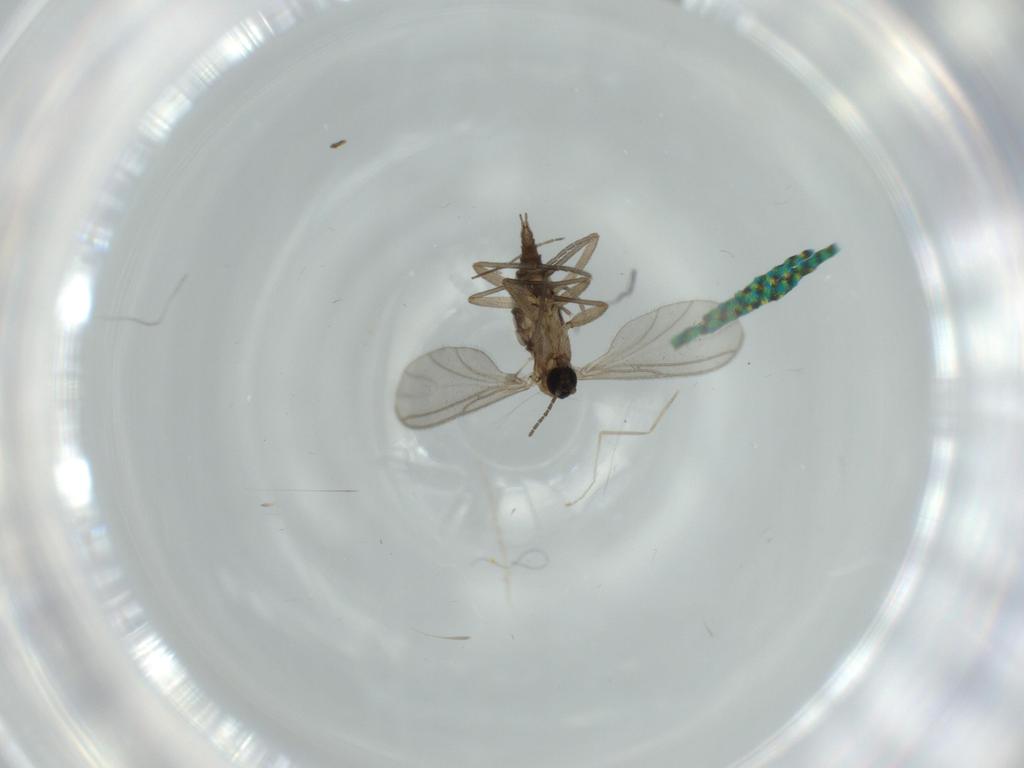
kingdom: Animalia
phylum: Arthropoda
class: Insecta
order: Diptera
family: Sciaridae
